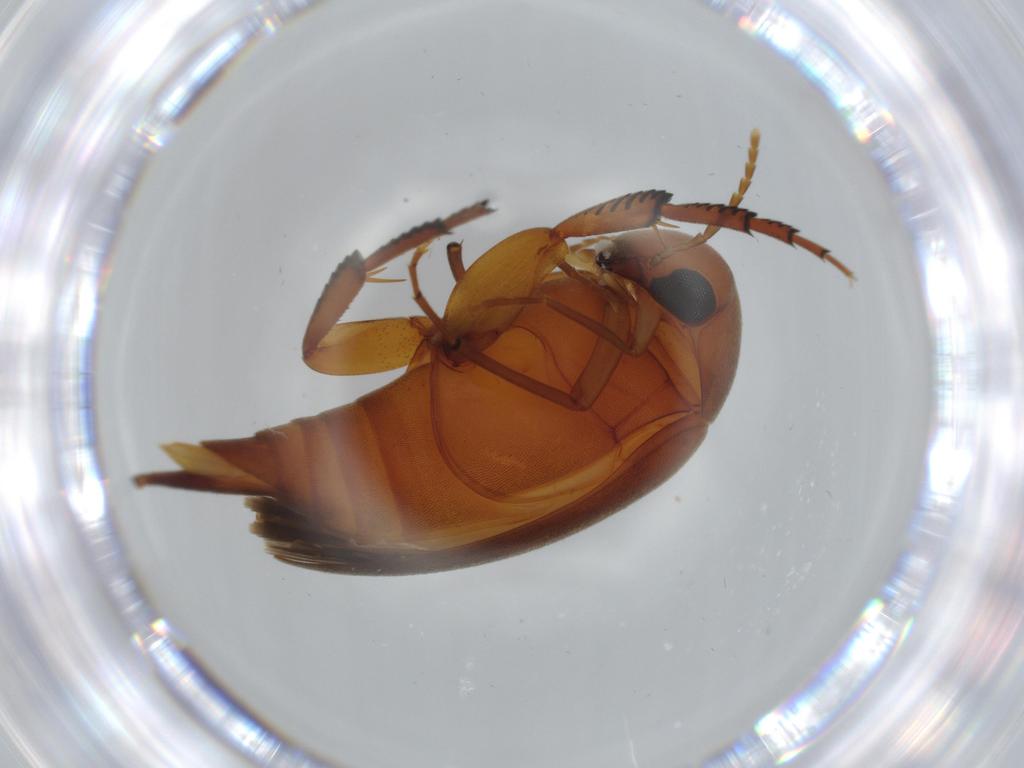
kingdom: Animalia
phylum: Arthropoda
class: Insecta
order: Coleoptera
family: Mordellidae
